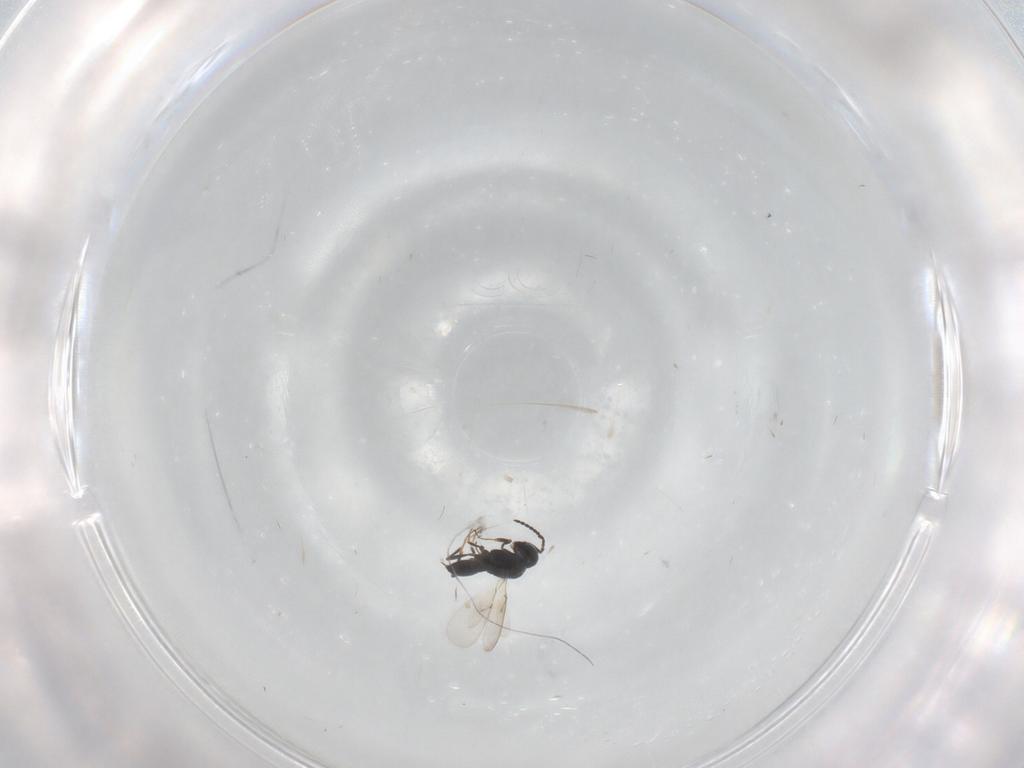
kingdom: Animalia
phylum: Arthropoda
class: Insecta
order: Hymenoptera
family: Scelionidae
